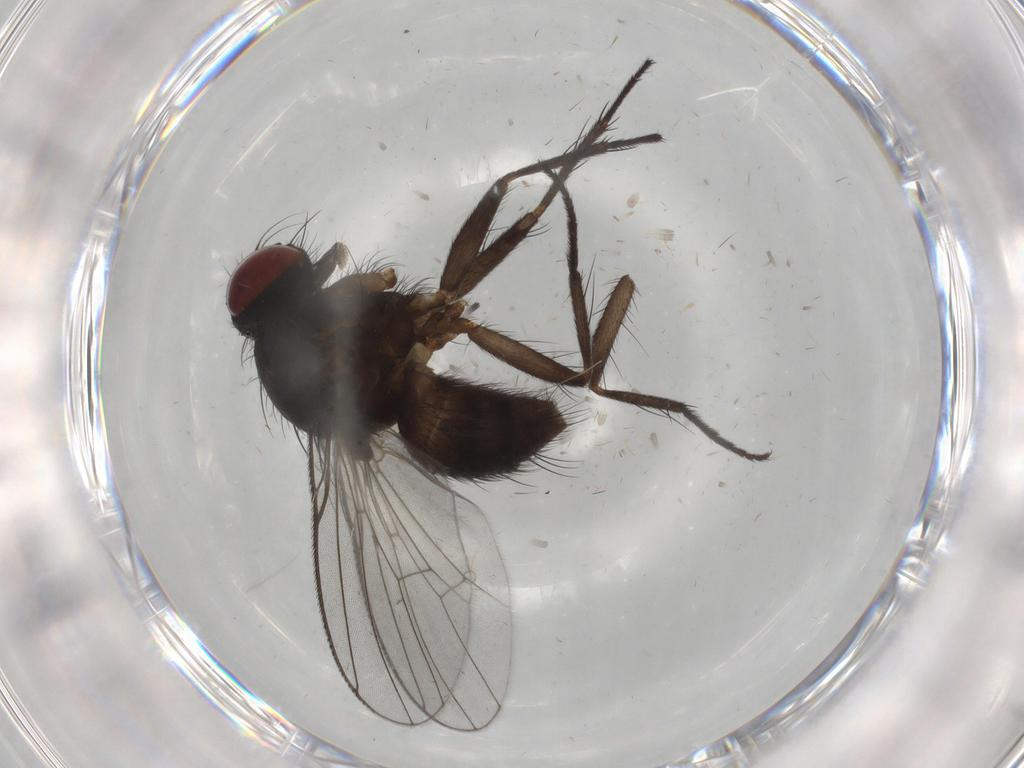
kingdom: Animalia
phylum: Arthropoda
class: Insecta
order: Diptera
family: Muscidae
